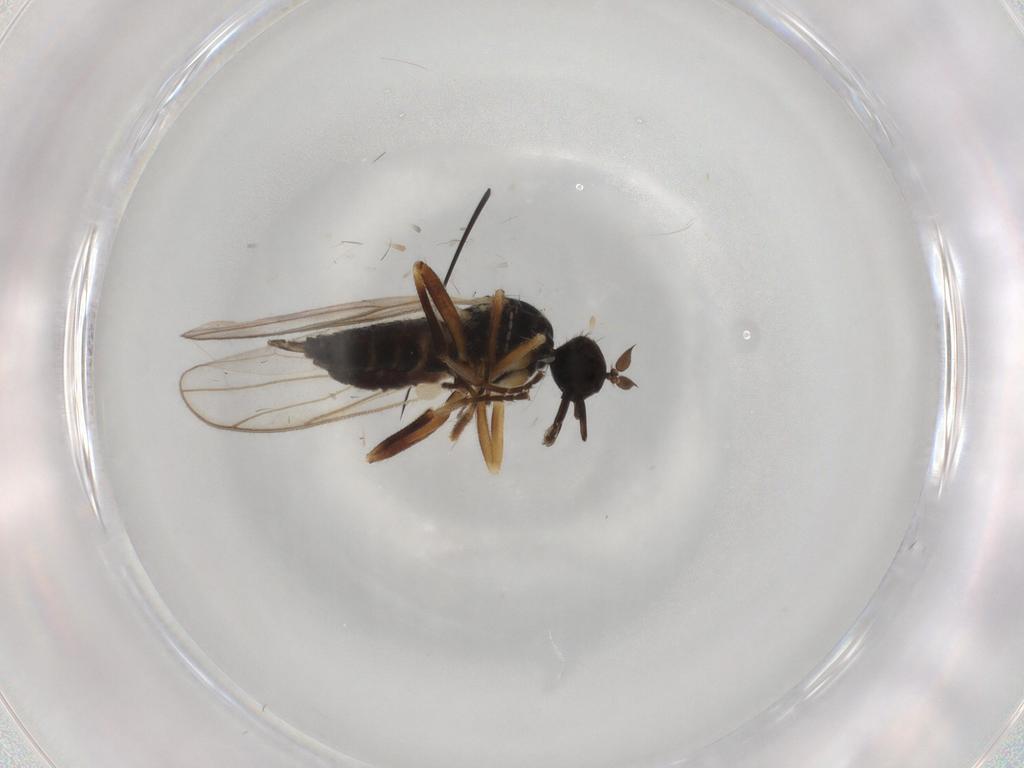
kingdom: Animalia
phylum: Arthropoda
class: Insecta
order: Diptera
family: Hybotidae
